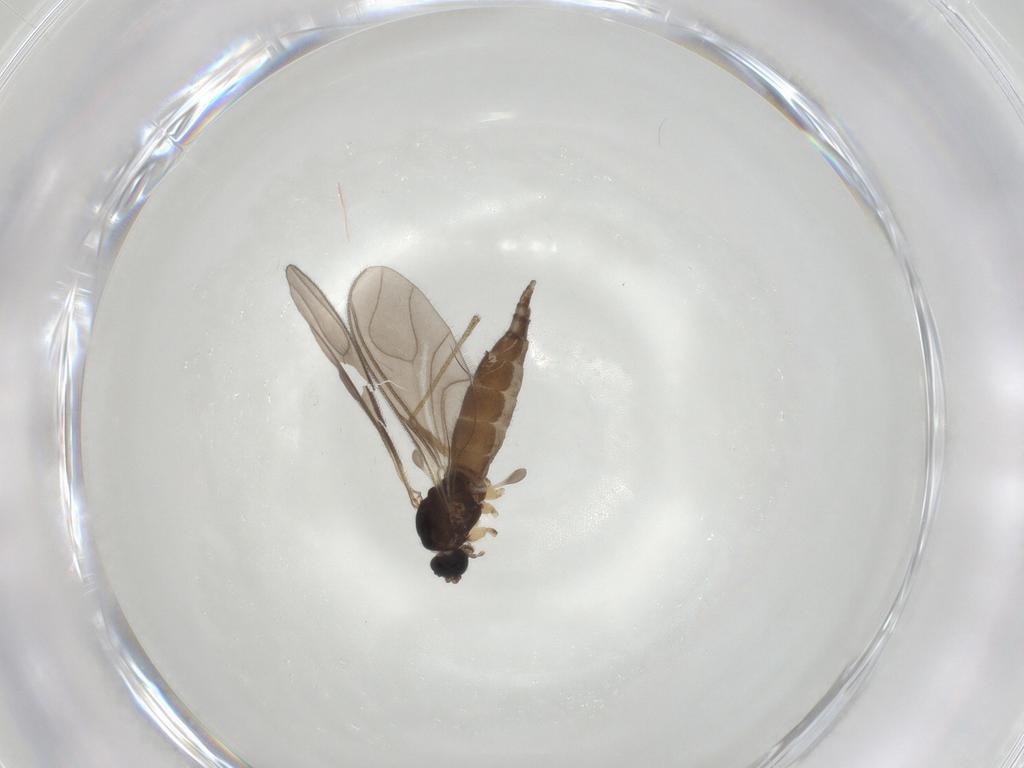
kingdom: Animalia
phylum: Arthropoda
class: Insecta
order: Diptera
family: Sciaridae
